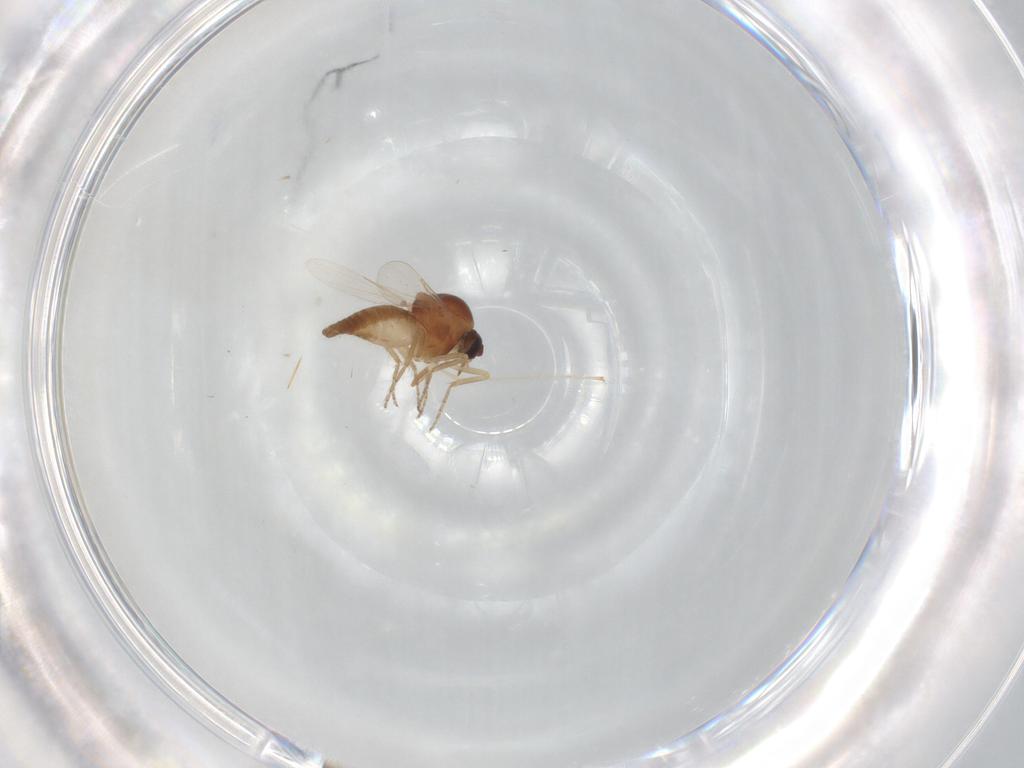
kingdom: Animalia
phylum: Arthropoda
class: Insecta
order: Diptera
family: Ceratopogonidae
